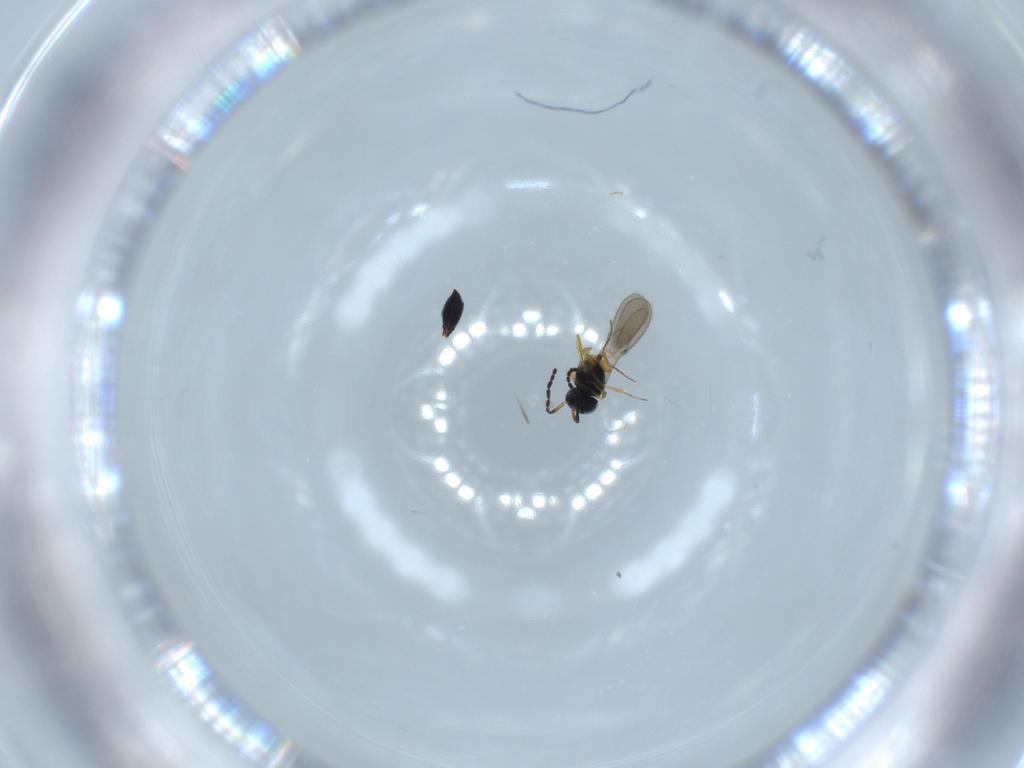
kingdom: Animalia
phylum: Arthropoda
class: Insecta
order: Hymenoptera
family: Scelionidae
